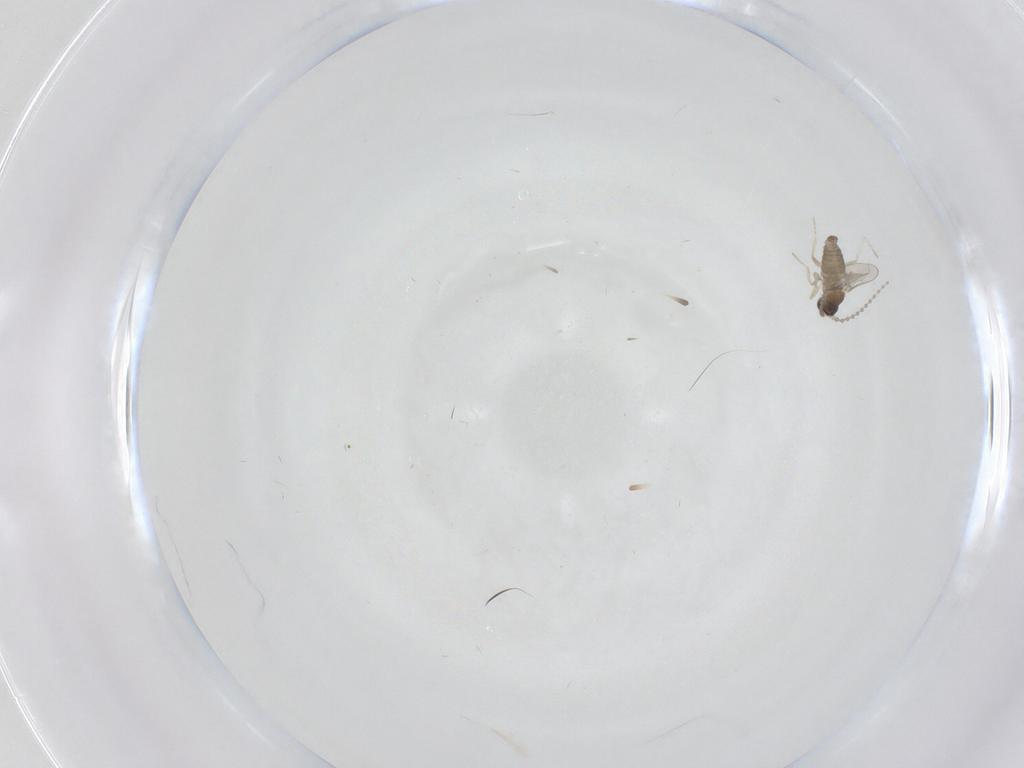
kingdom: Animalia
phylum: Arthropoda
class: Insecta
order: Diptera
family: Cecidomyiidae
